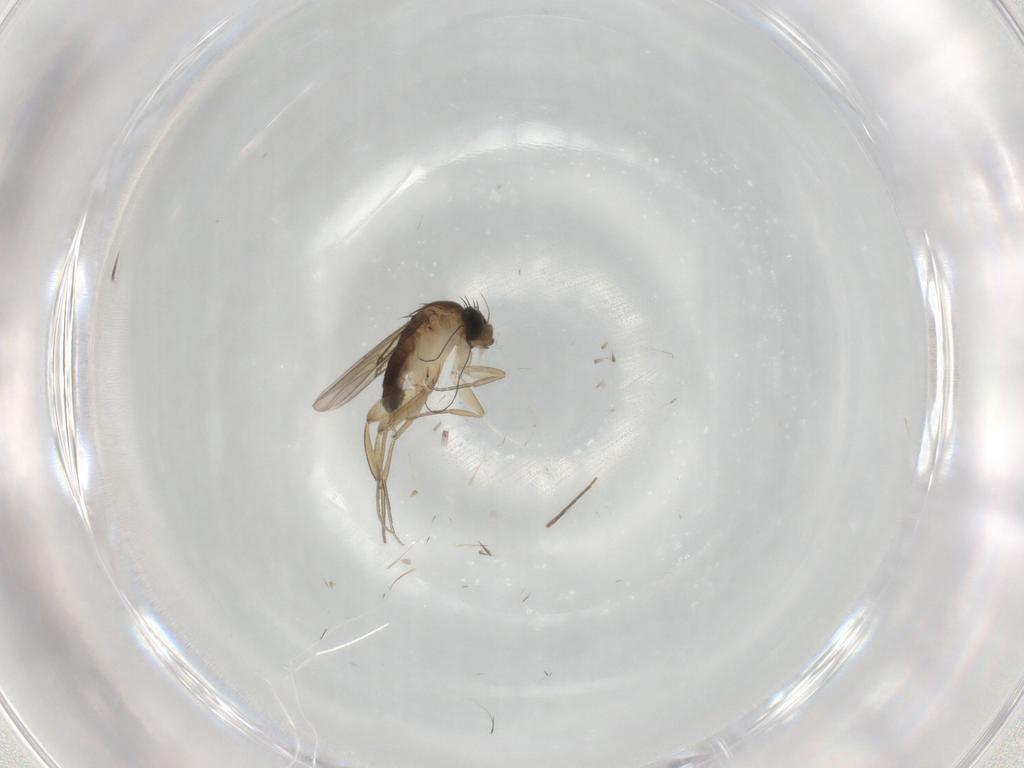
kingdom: Animalia
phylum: Arthropoda
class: Insecta
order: Diptera
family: Phoridae
